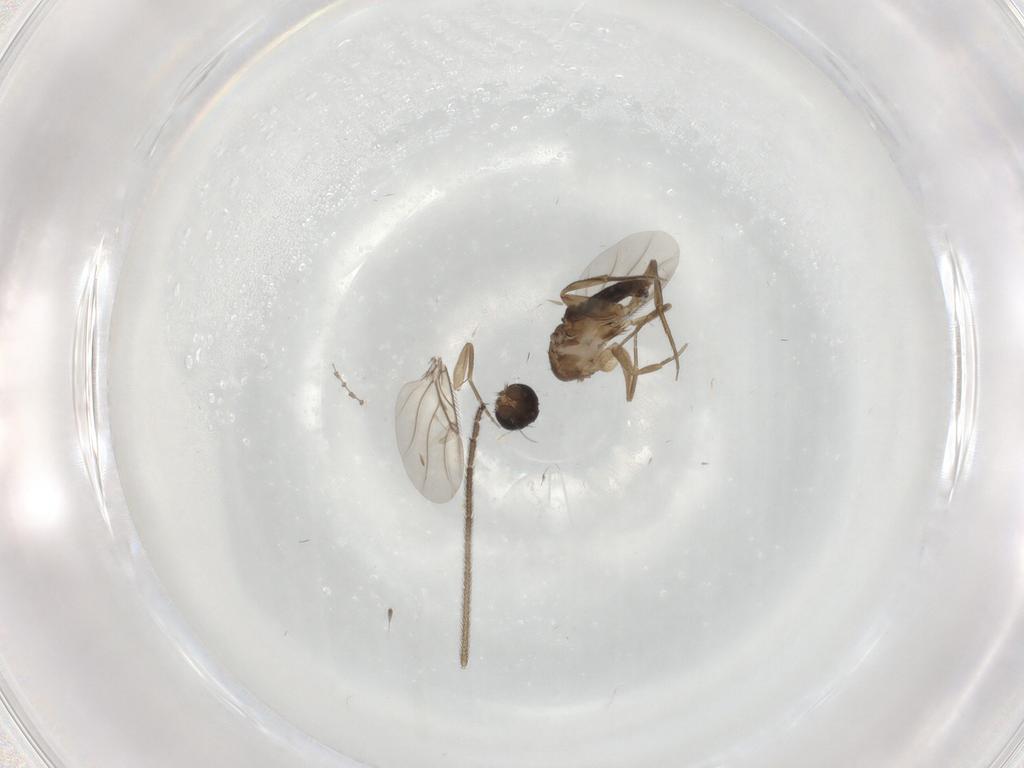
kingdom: Animalia
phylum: Arthropoda
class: Insecta
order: Diptera
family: Phoridae
